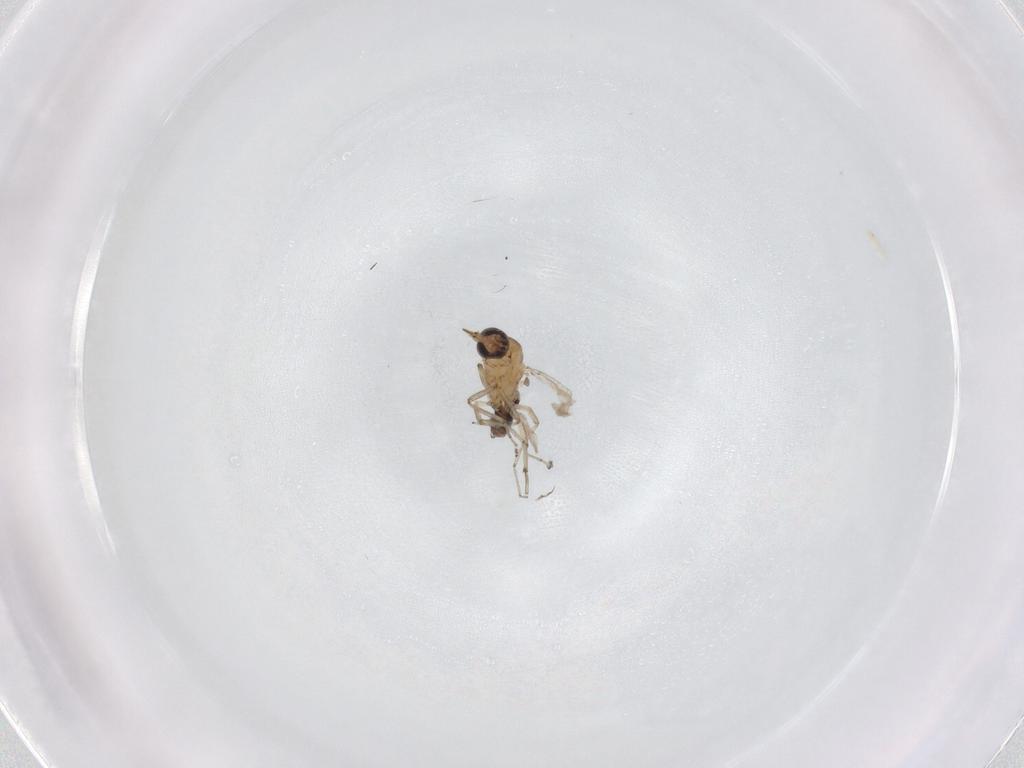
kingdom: Animalia
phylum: Arthropoda
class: Insecta
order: Diptera
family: Ceratopogonidae
